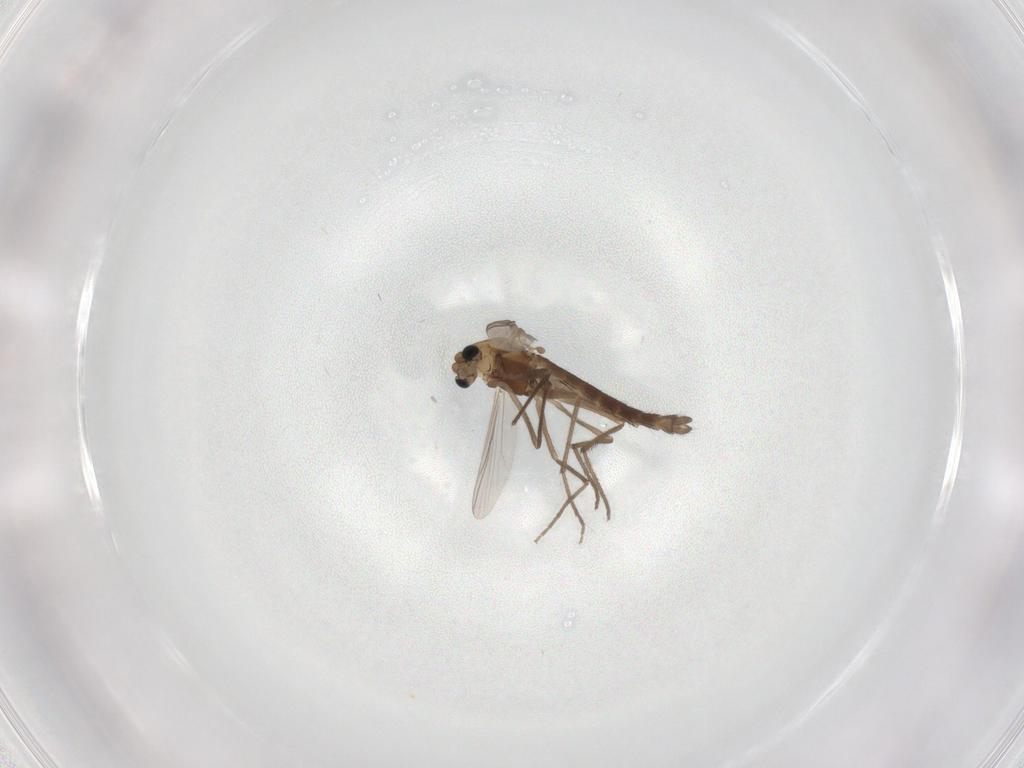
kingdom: Animalia
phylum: Arthropoda
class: Insecta
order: Diptera
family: Chironomidae
